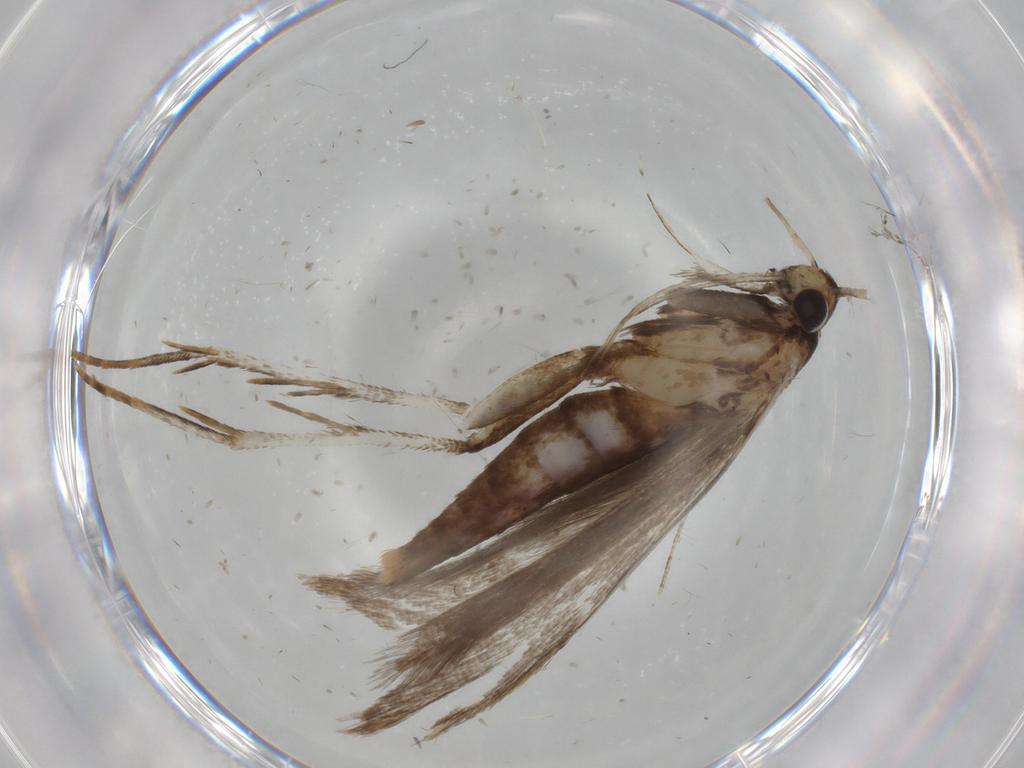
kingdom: Animalia
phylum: Arthropoda
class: Insecta
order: Lepidoptera
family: Gelechiidae
